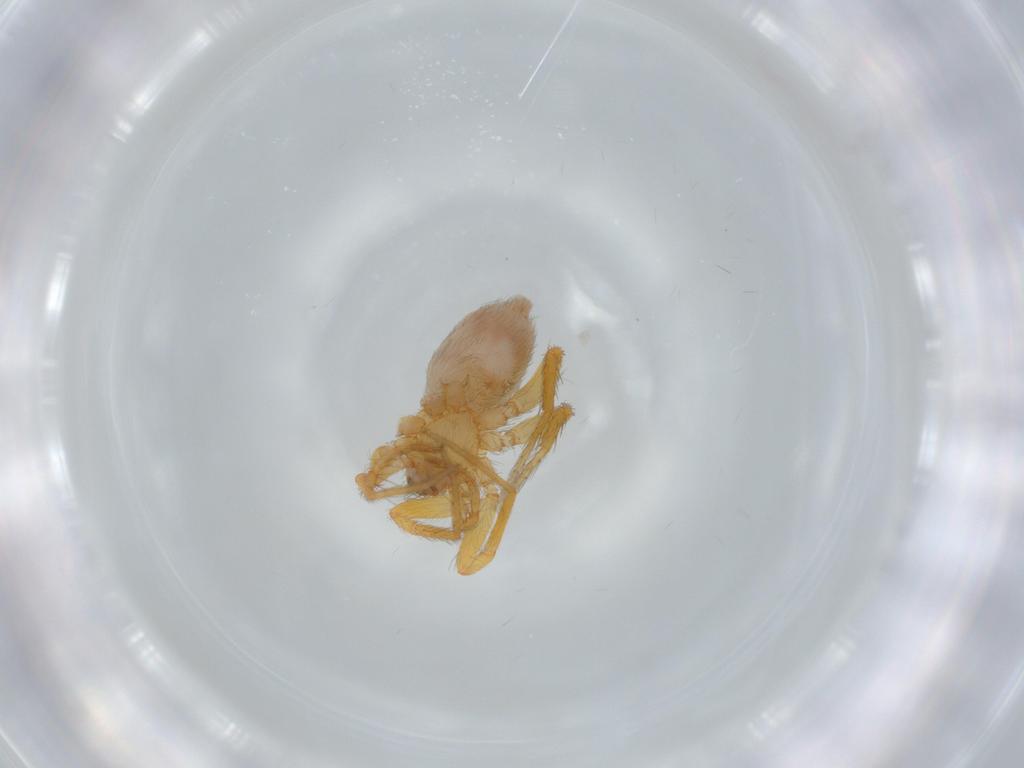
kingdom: Animalia
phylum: Arthropoda
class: Arachnida
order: Araneae
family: Oonopidae
